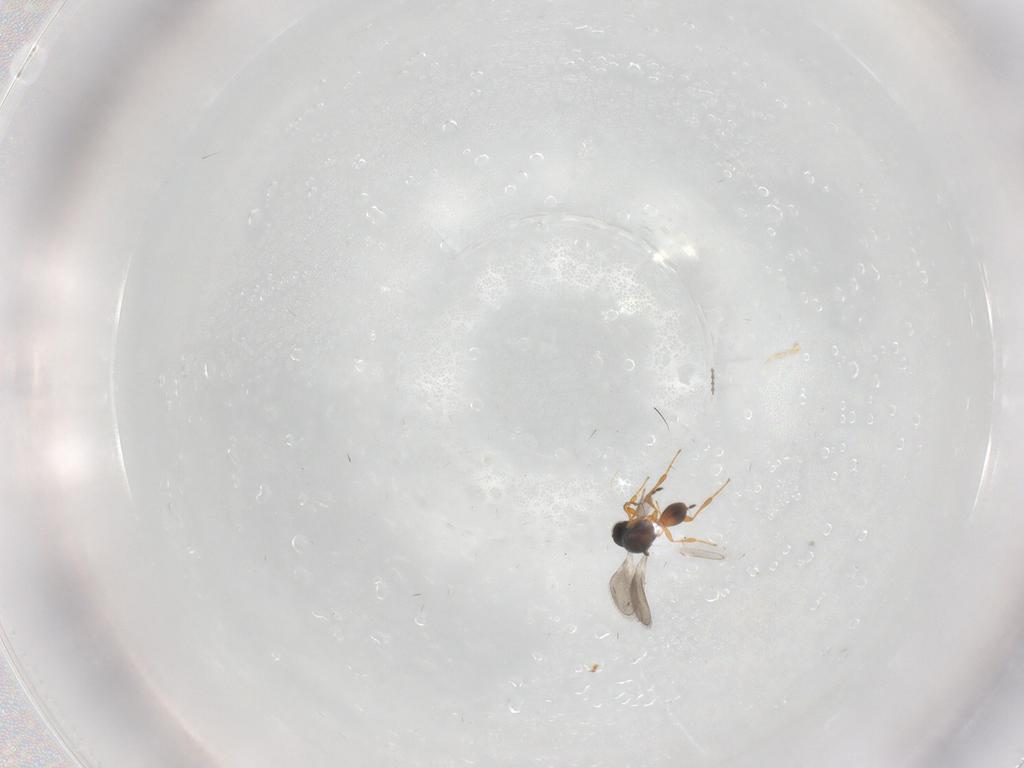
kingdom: Animalia
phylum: Arthropoda
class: Insecta
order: Hymenoptera
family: Platygastridae
